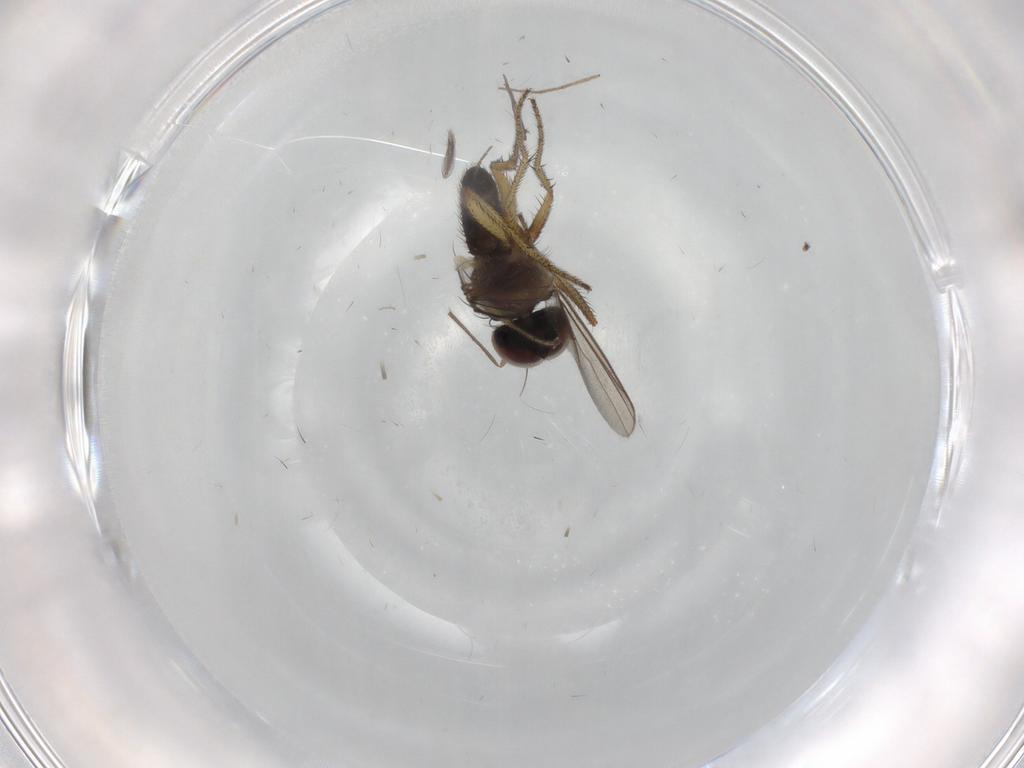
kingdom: Animalia
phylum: Arthropoda
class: Insecta
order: Diptera
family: Chironomidae
